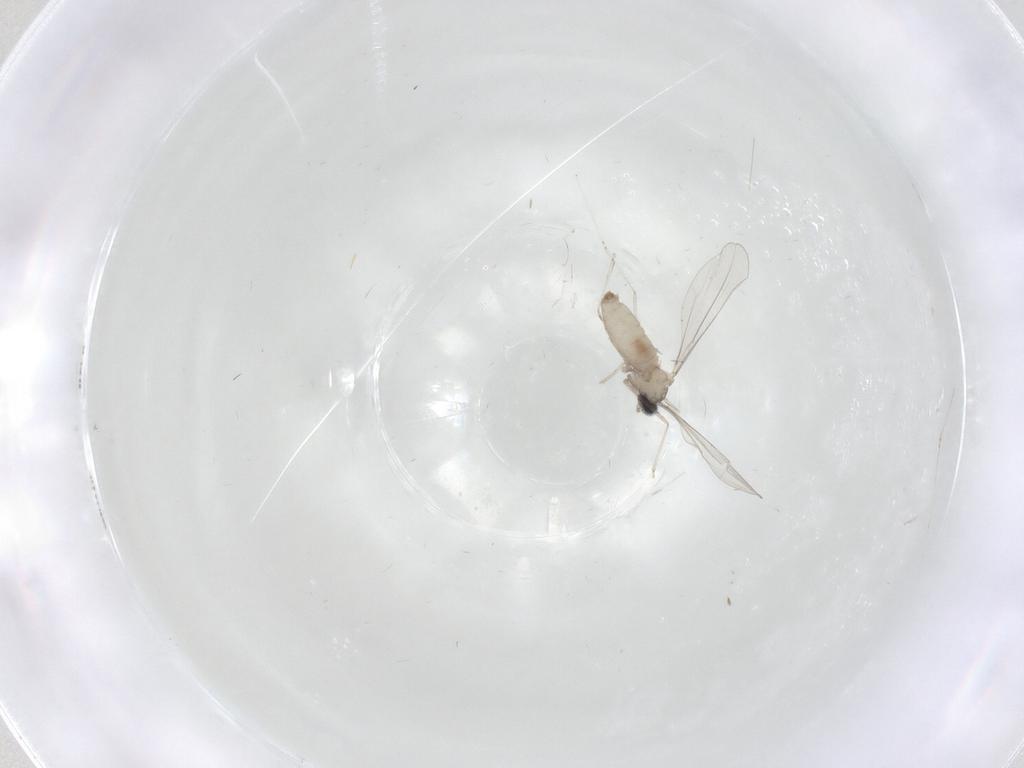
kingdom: Animalia
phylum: Arthropoda
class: Insecta
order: Diptera
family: Cecidomyiidae
